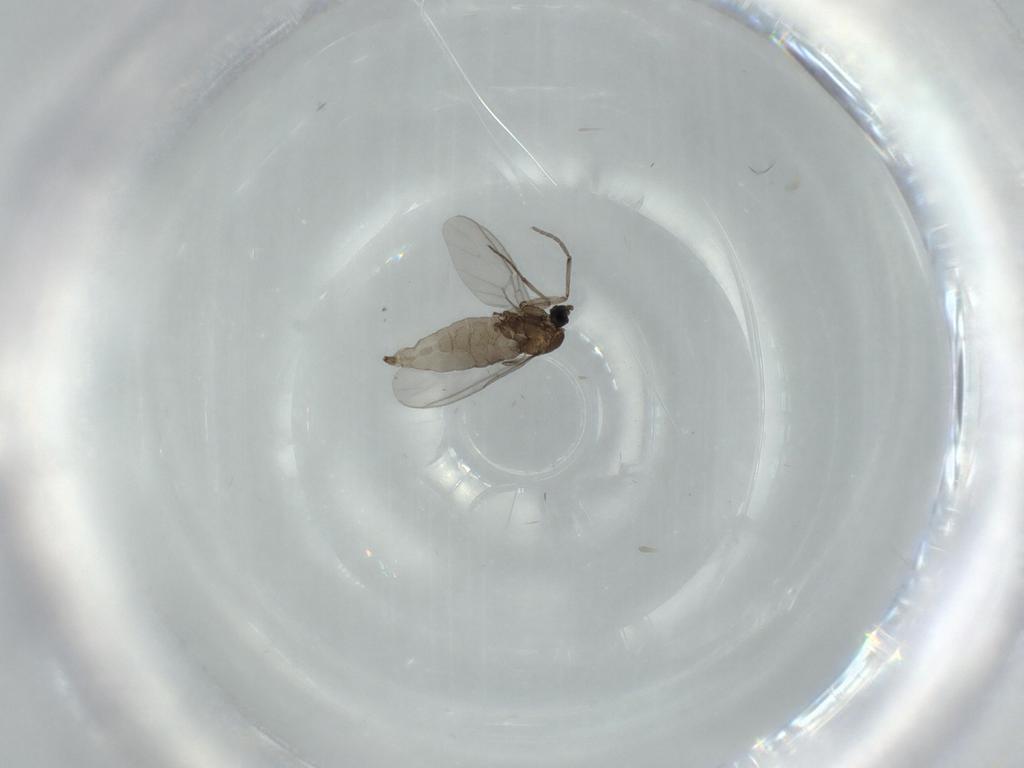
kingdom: Animalia
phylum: Arthropoda
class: Insecta
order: Diptera
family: Sciaridae
